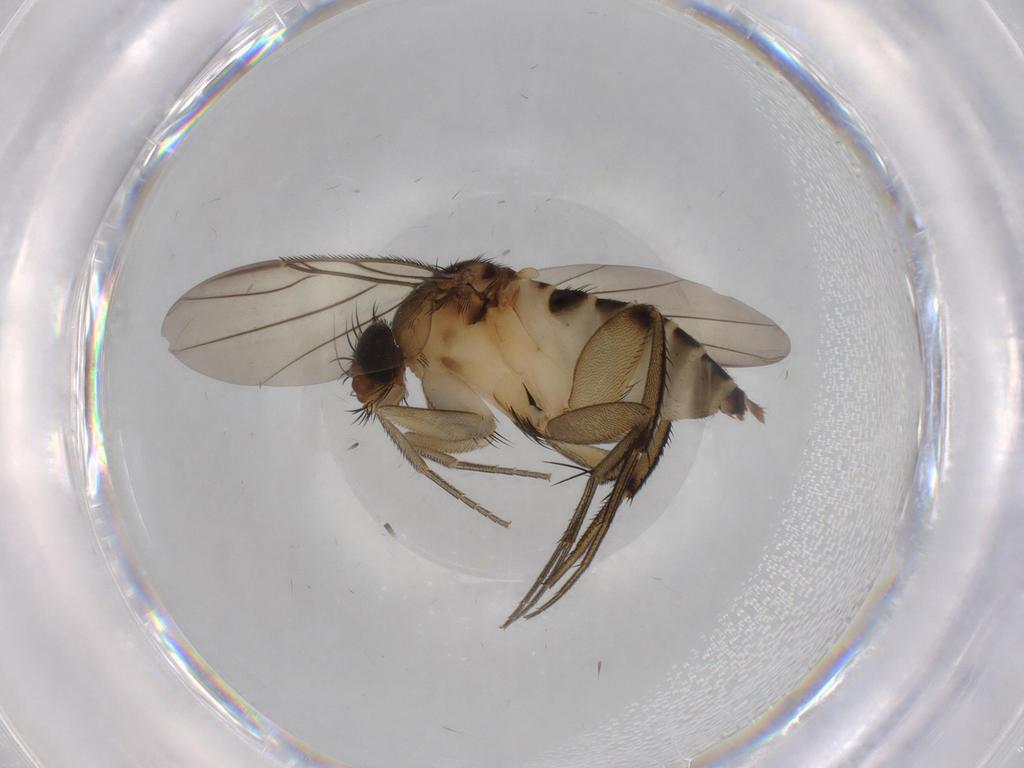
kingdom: Animalia
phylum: Arthropoda
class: Insecta
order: Diptera
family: Phoridae
